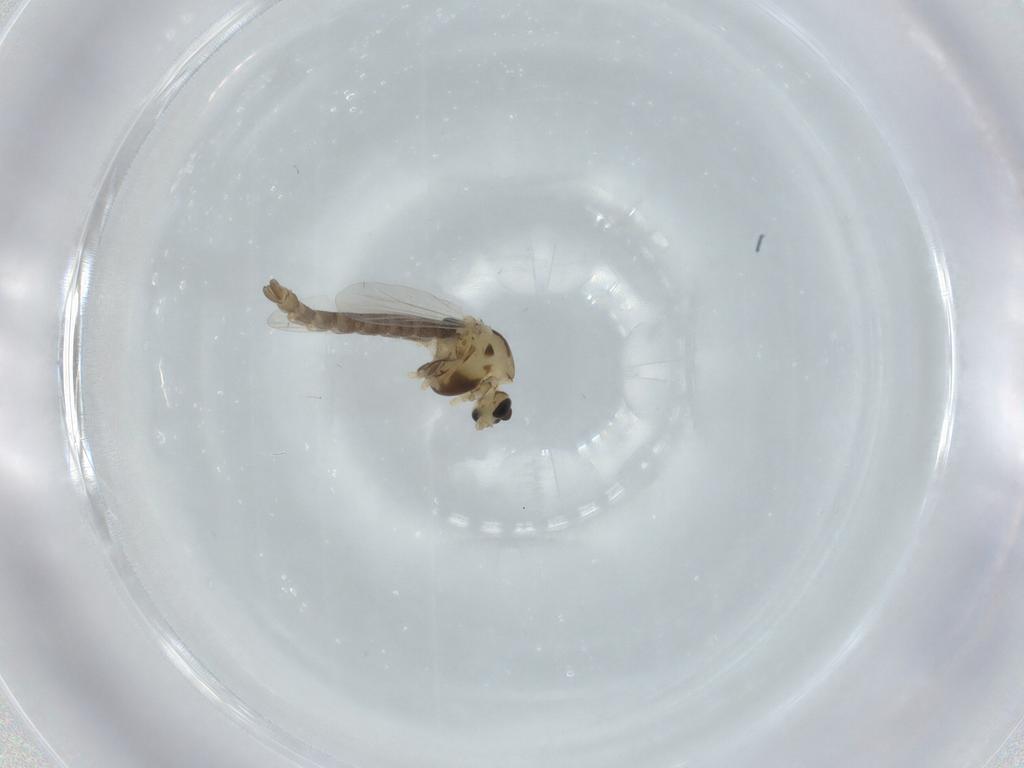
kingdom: Animalia
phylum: Arthropoda
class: Insecta
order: Diptera
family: Chironomidae
